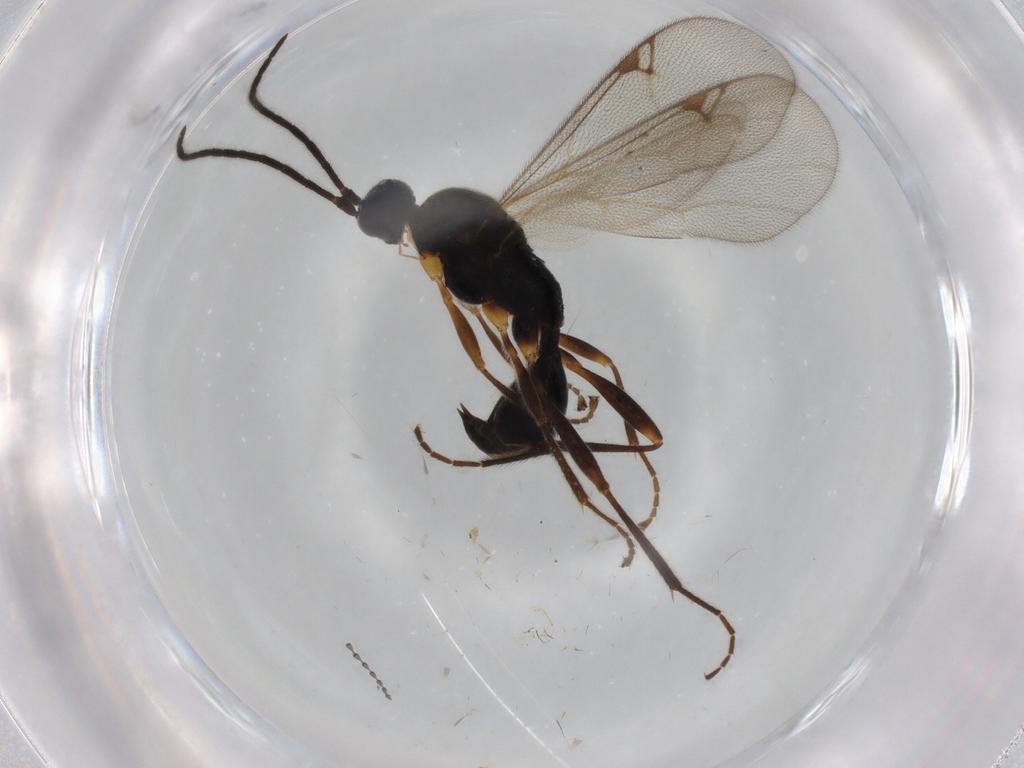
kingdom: Animalia
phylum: Arthropoda
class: Insecta
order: Hymenoptera
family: Proctotrupidae
